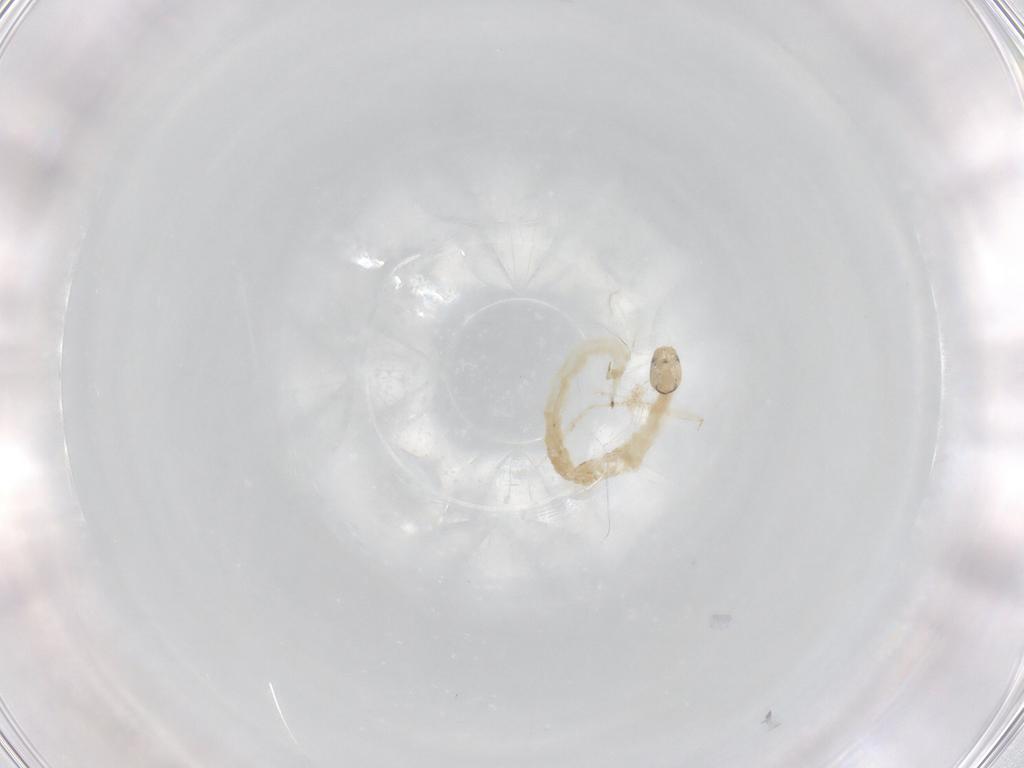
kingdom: Animalia
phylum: Arthropoda
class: Insecta
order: Diptera
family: Chironomidae
